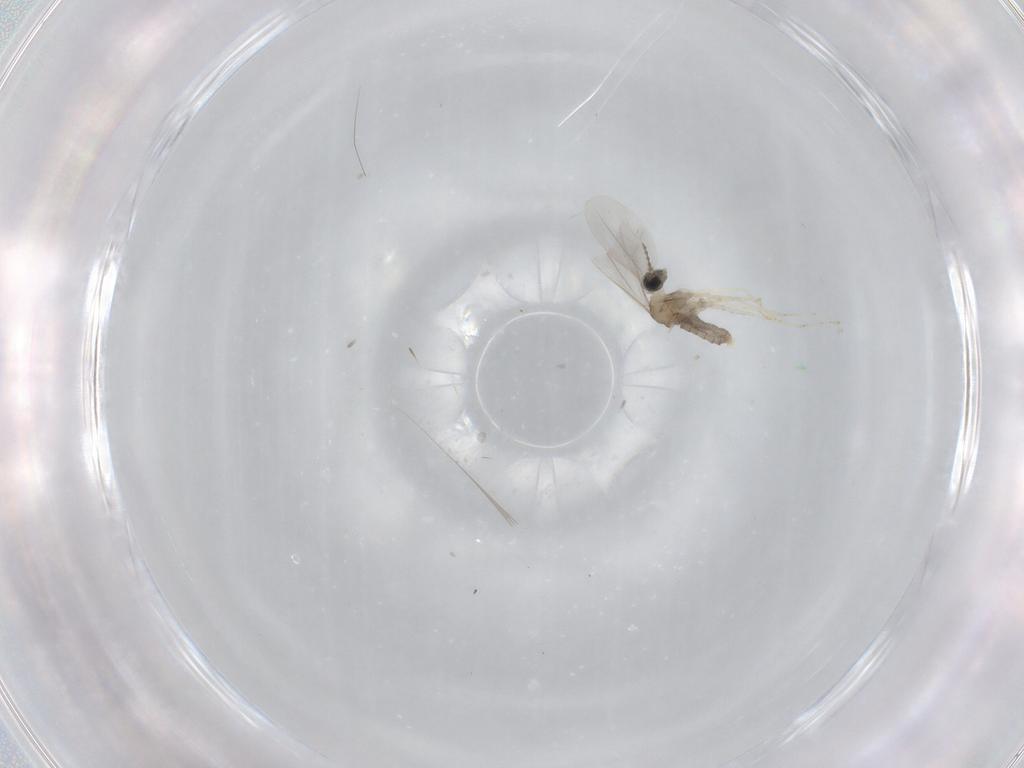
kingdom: Animalia
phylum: Arthropoda
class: Insecta
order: Diptera
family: Cecidomyiidae
